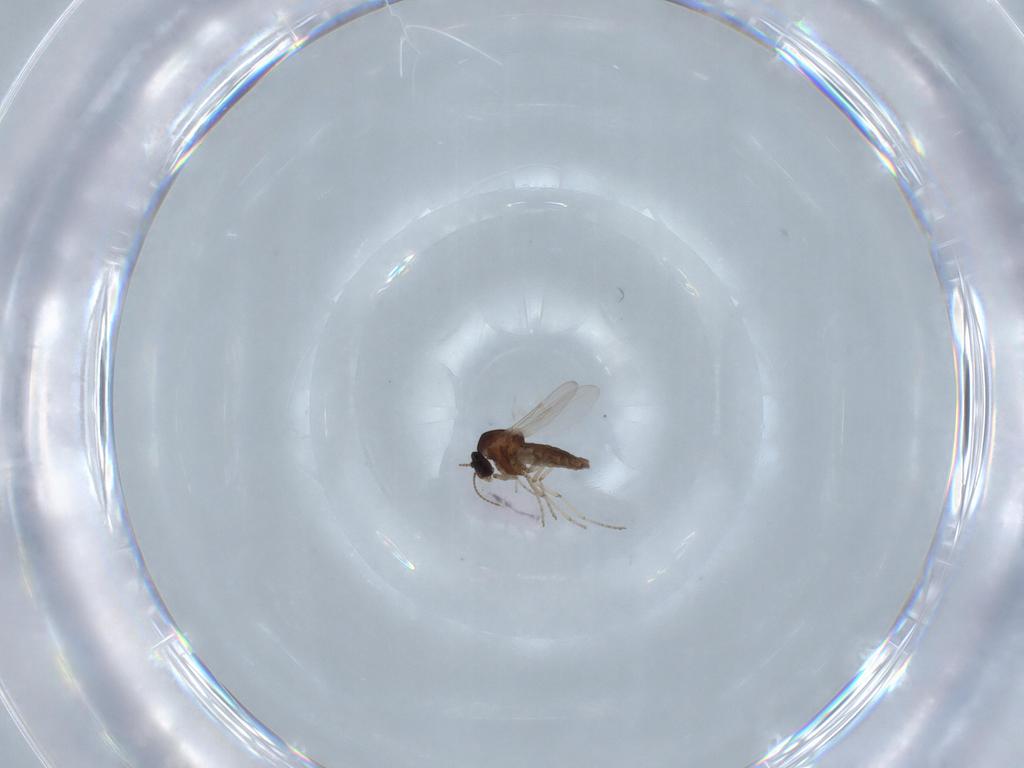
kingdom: Animalia
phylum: Arthropoda
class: Insecta
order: Diptera
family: Ceratopogonidae
